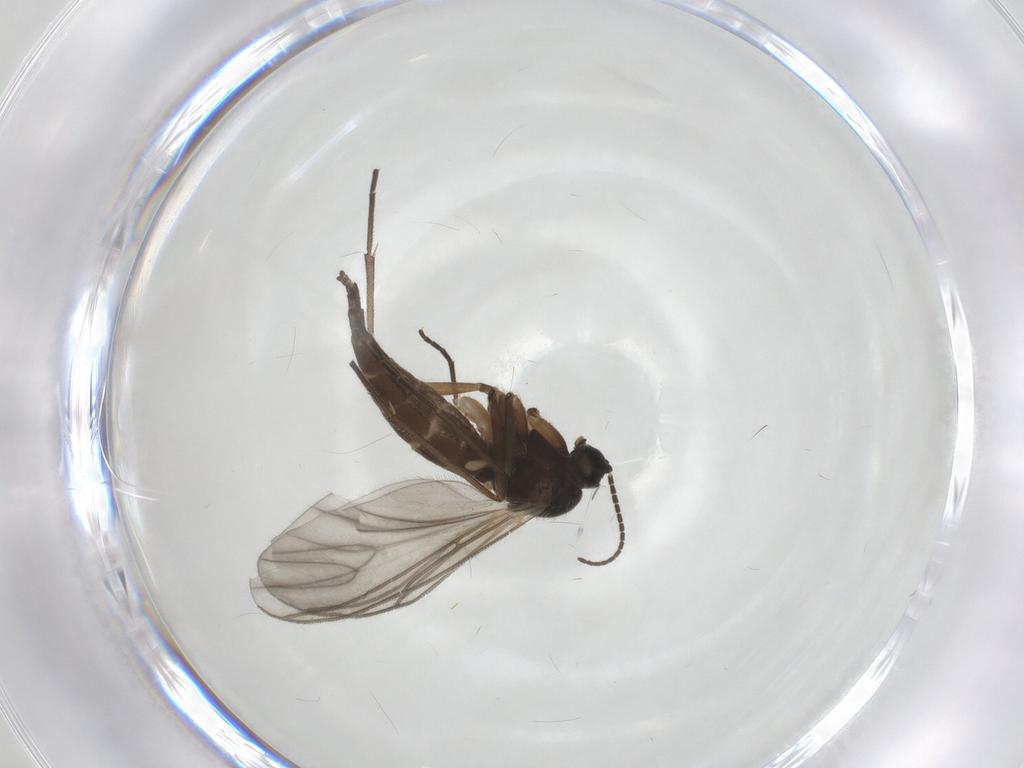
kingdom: Animalia
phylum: Arthropoda
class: Insecta
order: Diptera
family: Sciaridae
